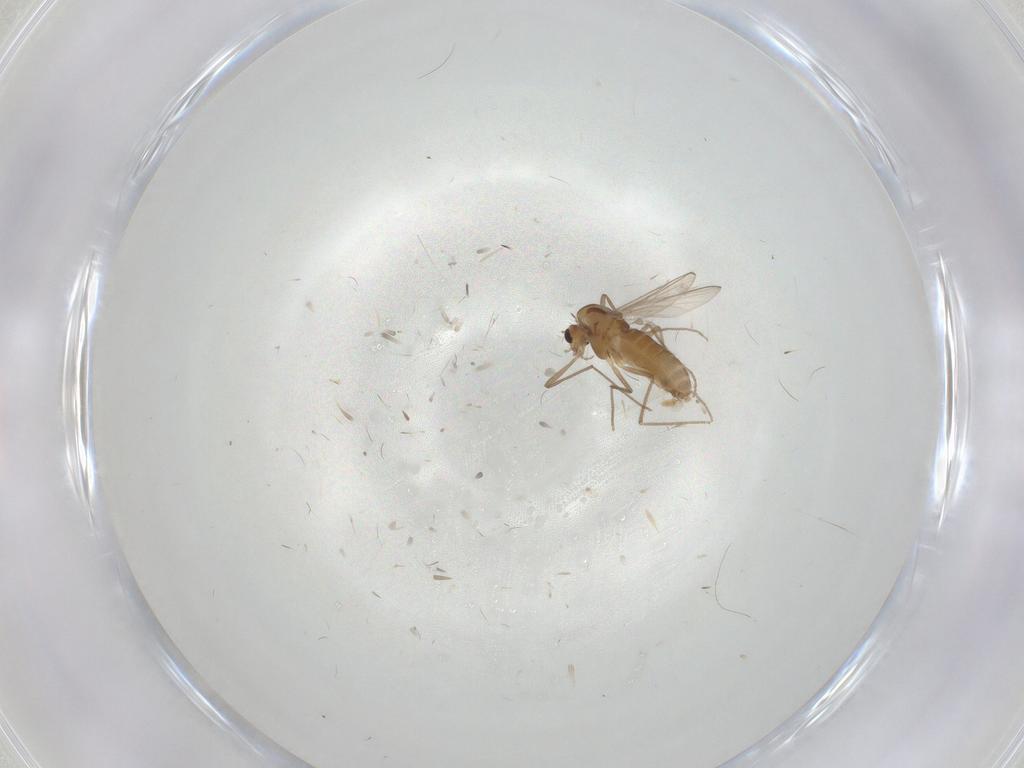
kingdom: Animalia
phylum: Arthropoda
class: Insecta
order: Diptera
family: Chironomidae
